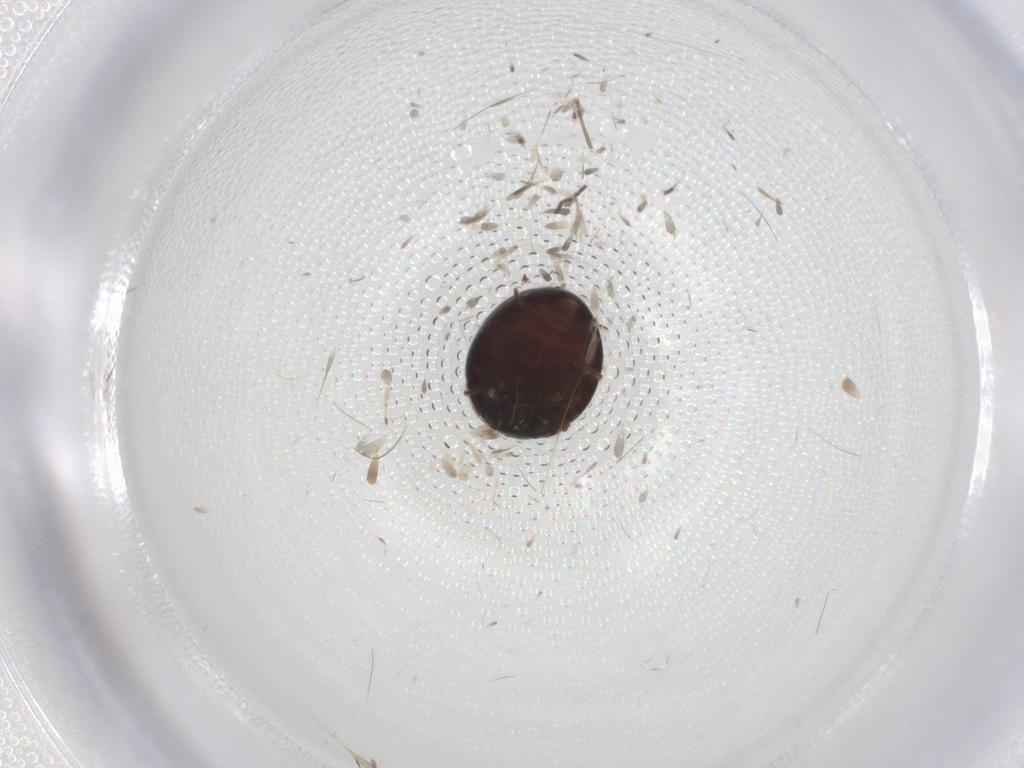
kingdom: Animalia
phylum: Arthropoda
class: Insecta
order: Coleoptera
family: Anamorphidae
